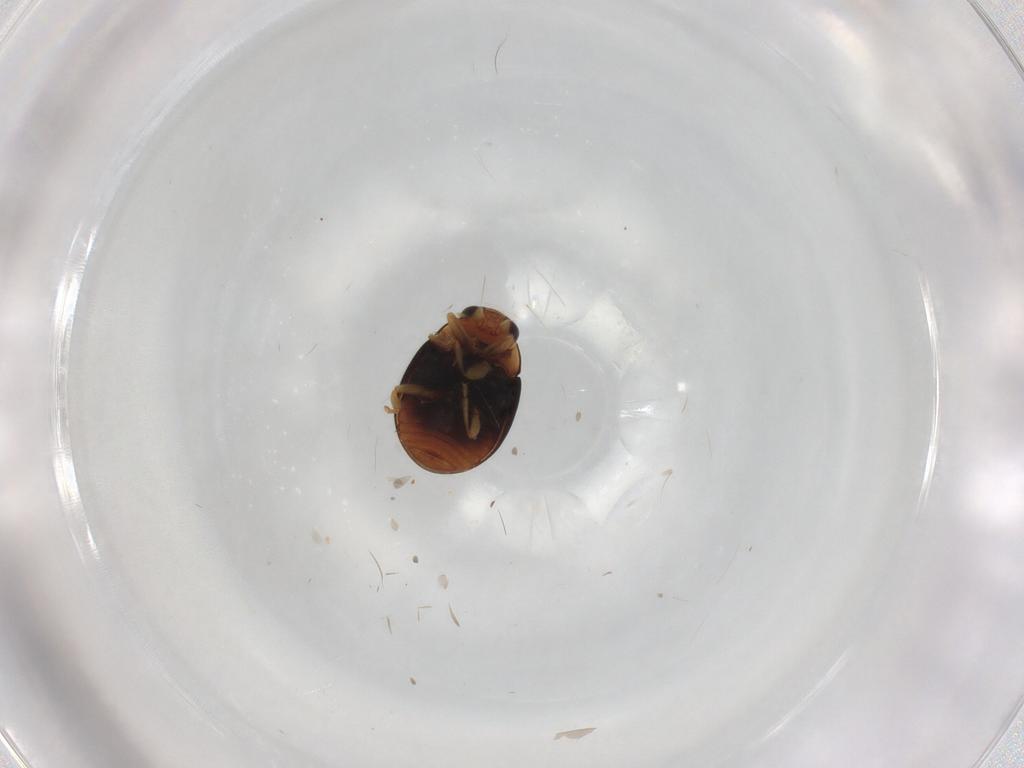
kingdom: Animalia
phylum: Arthropoda
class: Insecta
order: Coleoptera
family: Coccinellidae
